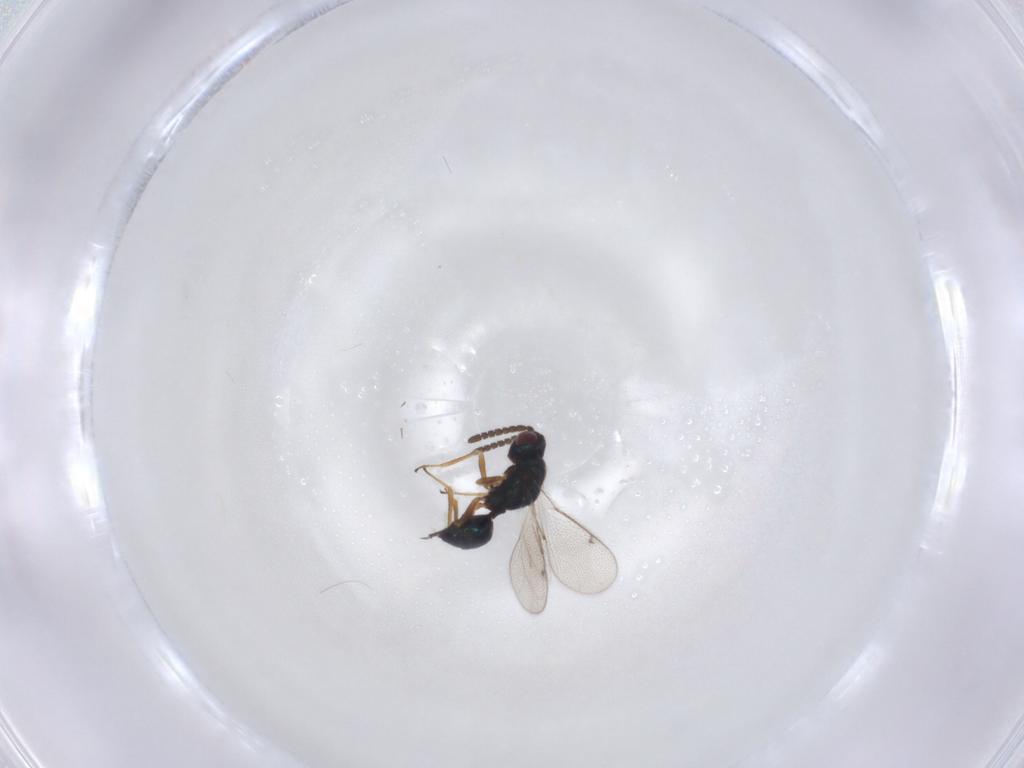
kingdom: Animalia
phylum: Arthropoda
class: Insecta
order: Hymenoptera
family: Tetracampidae
